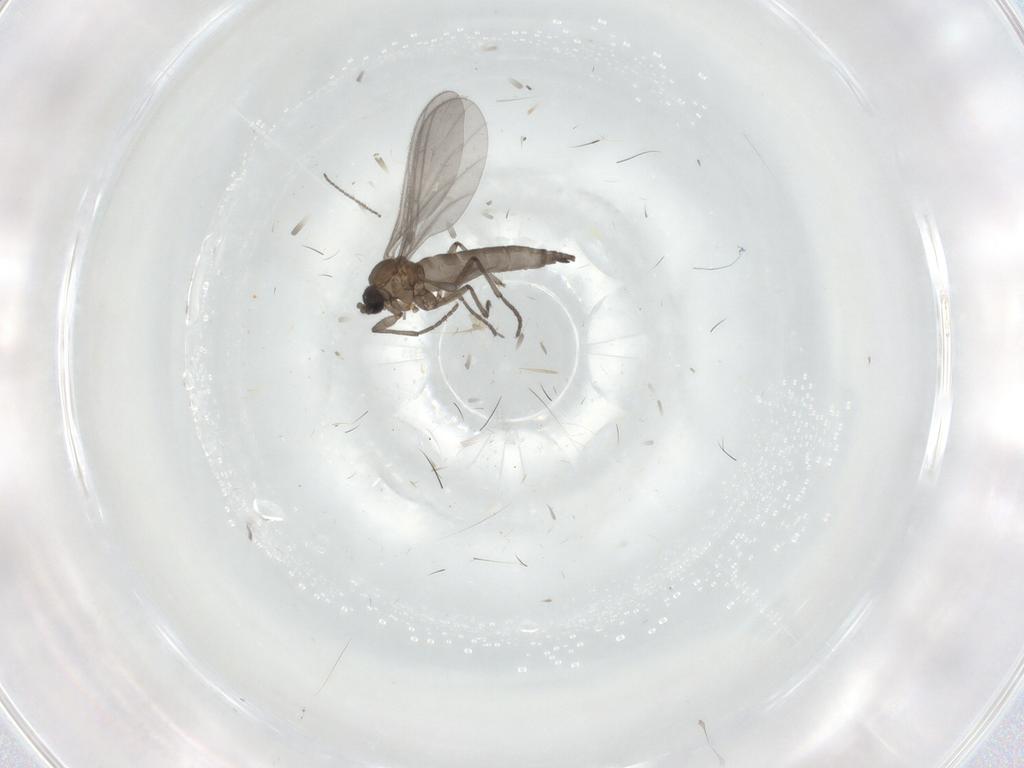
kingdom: Animalia
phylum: Arthropoda
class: Insecta
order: Diptera
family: Sciaridae
